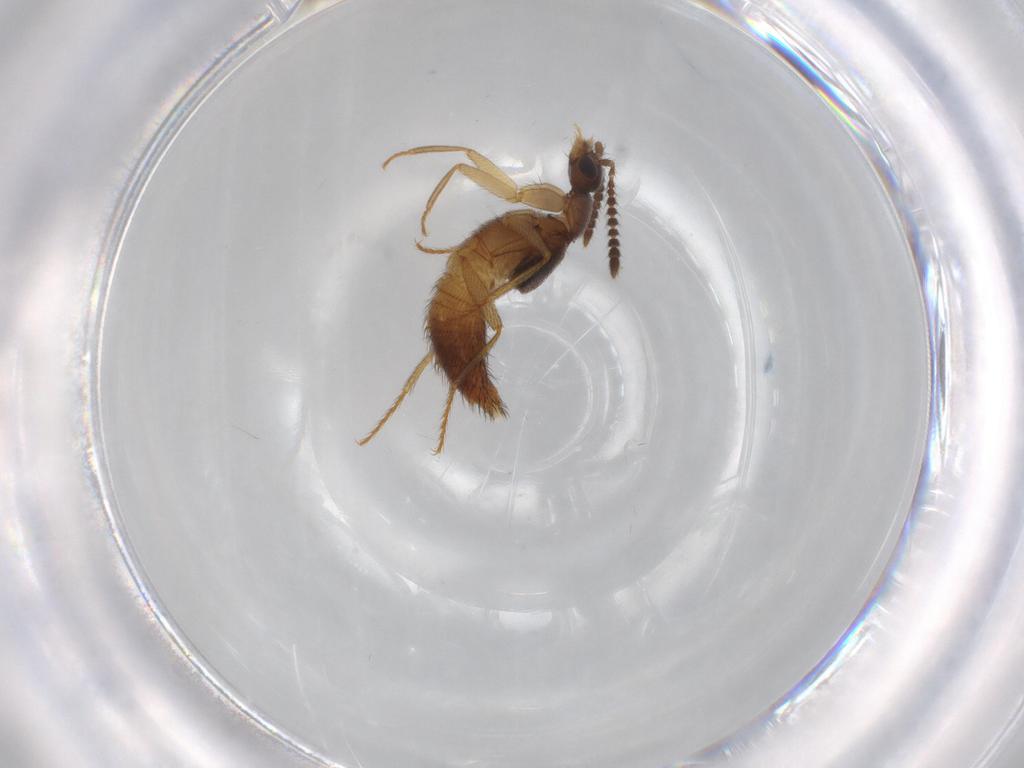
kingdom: Animalia
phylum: Arthropoda
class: Insecta
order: Coleoptera
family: Staphylinidae
